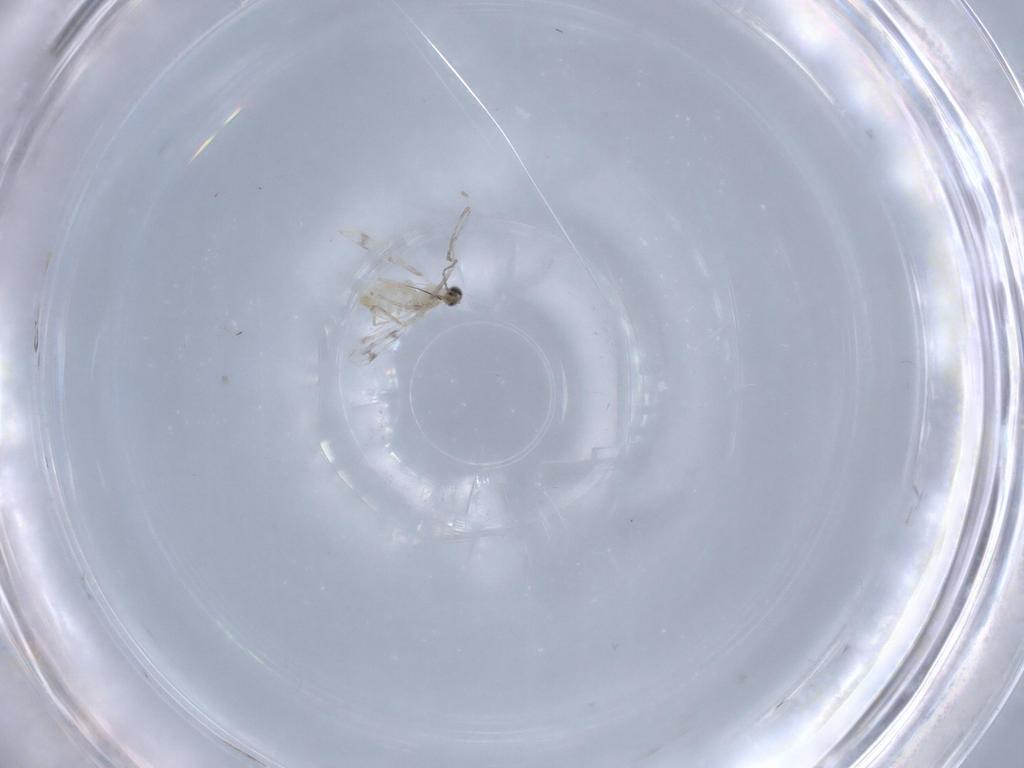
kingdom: Animalia
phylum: Arthropoda
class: Insecta
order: Diptera
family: Cecidomyiidae
